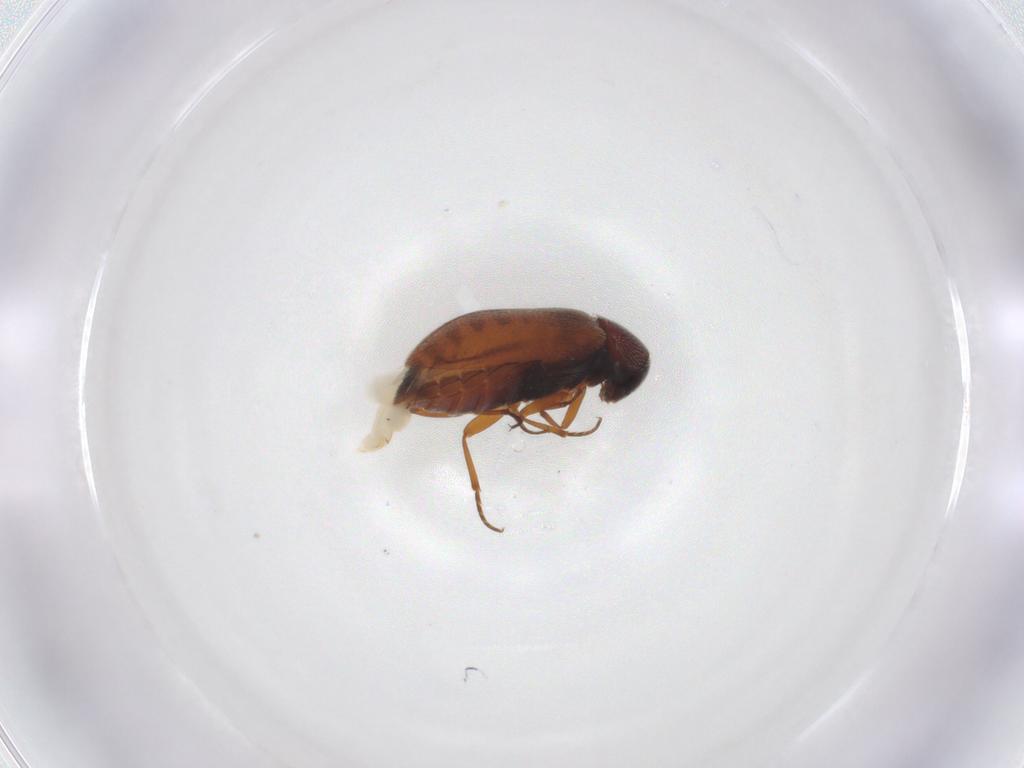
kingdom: Animalia
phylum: Arthropoda
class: Insecta
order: Coleoptera
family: Rhadalidae
